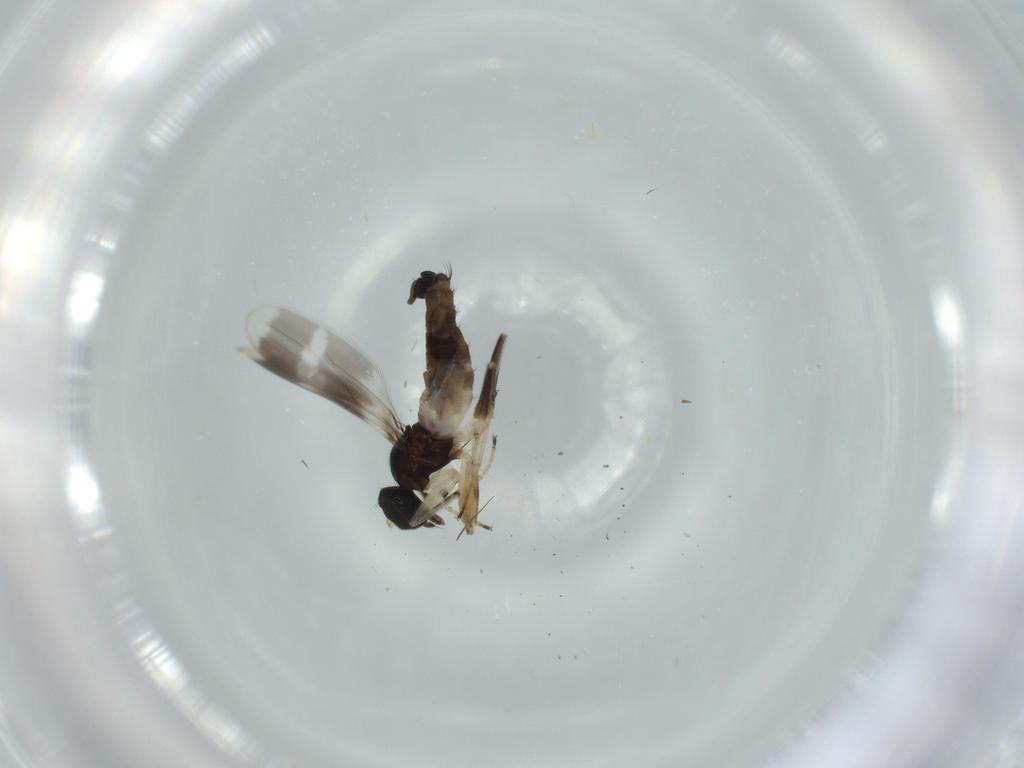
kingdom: Animalia
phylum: Arthropoda
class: Insecta
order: Diptera
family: Hybotidae
